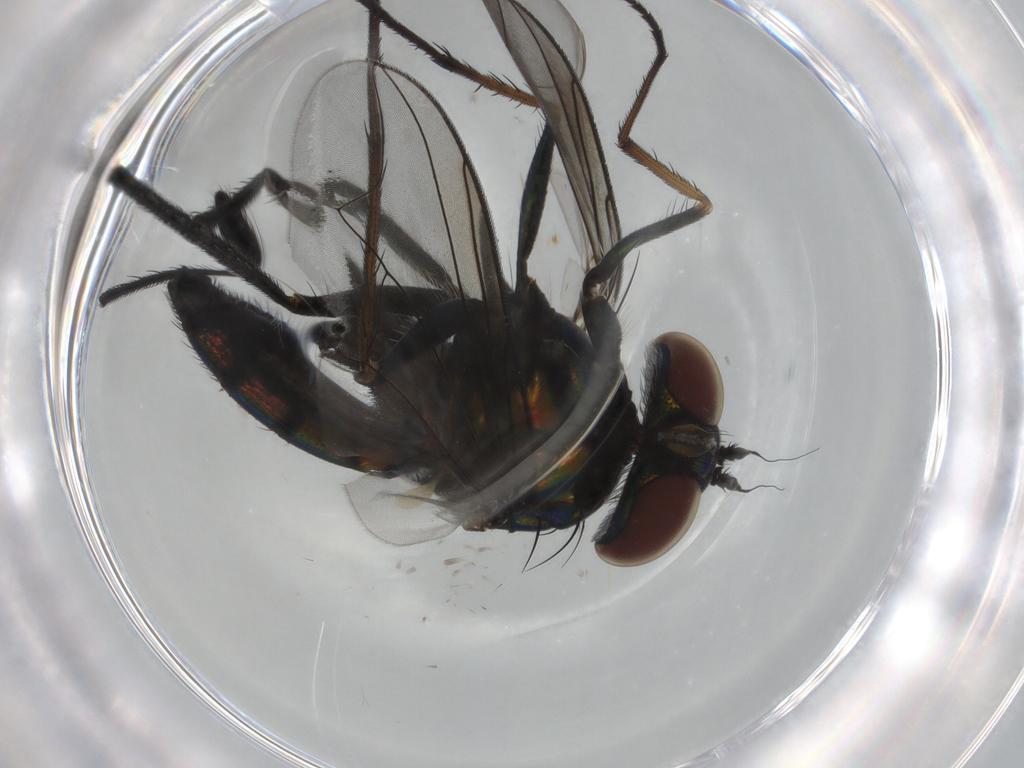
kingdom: Animalia
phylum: Arthropoda
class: Insecta
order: Diptera
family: Dolichopodidae
